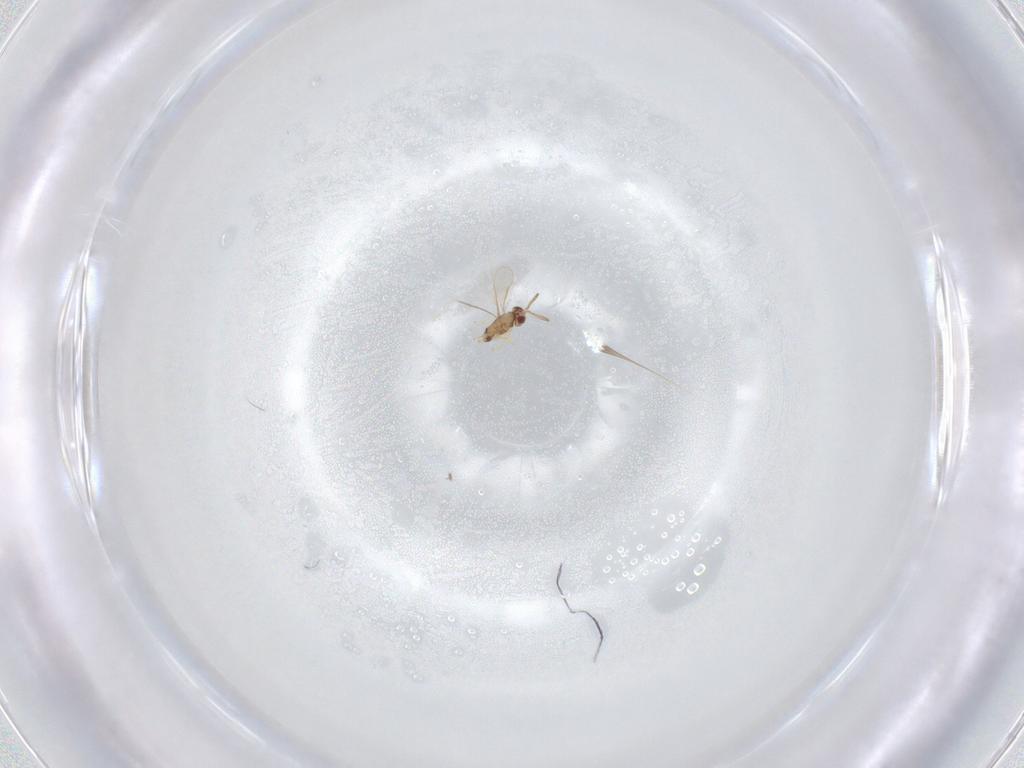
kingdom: Animalia
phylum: Arthropoda
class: Insecta
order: Hymenoptera
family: Aphelinidae
